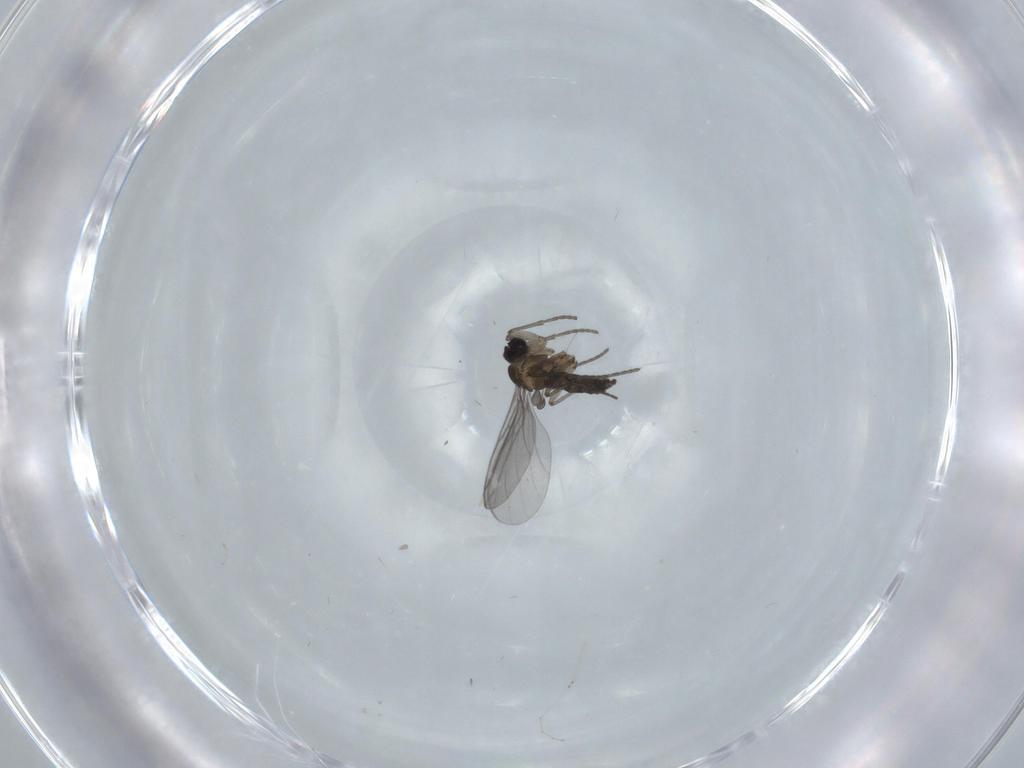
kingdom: Animalia
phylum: Arthropoda
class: Insecta
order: Diptera
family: Cecidomyiidae
